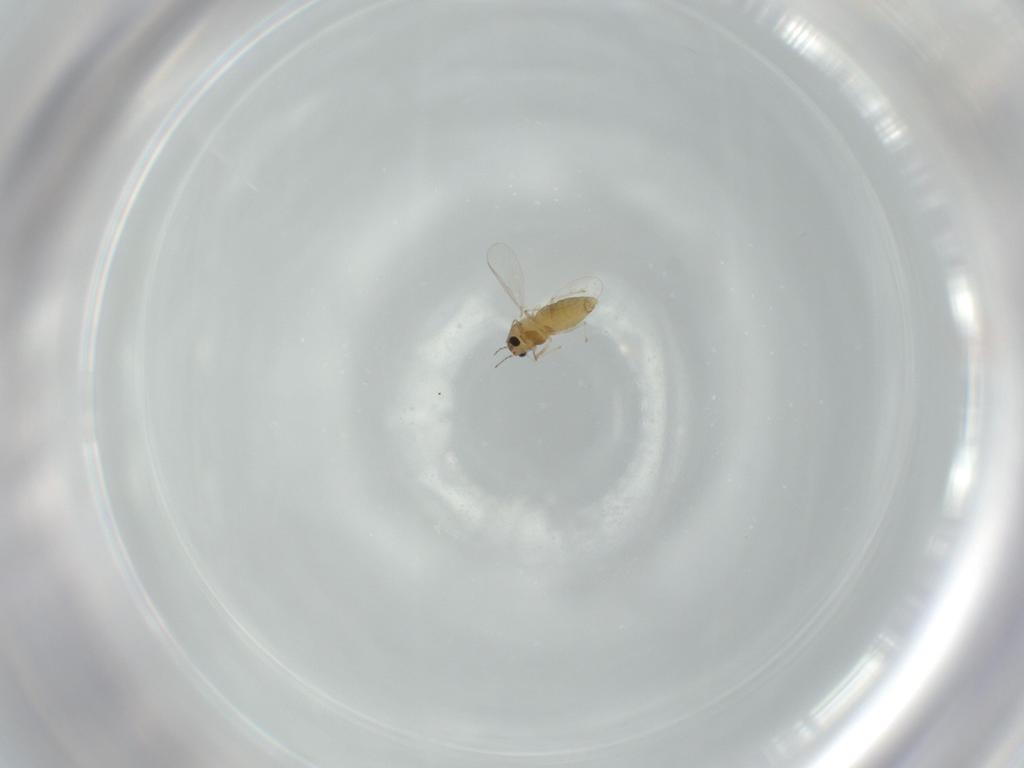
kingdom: Animalia
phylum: Arthropoda
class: Insecta
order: Diptera
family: Chironomidae
